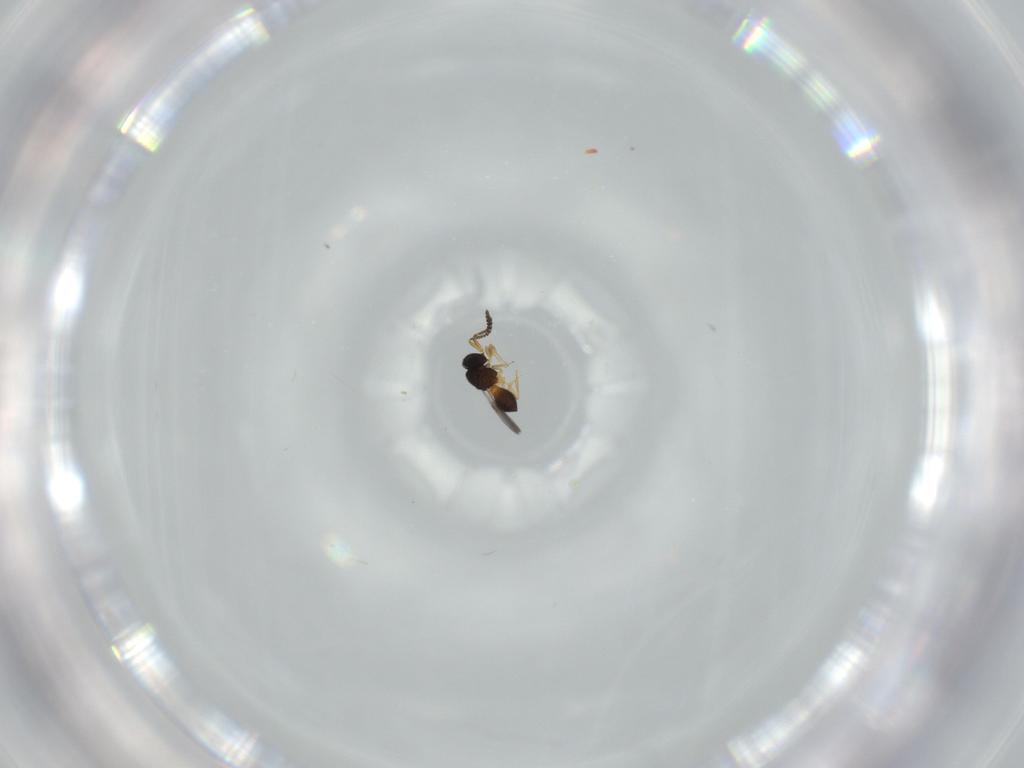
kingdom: Animalia
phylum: Arthropoda
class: Insecta
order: Hymenoptera
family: Scelionidae
